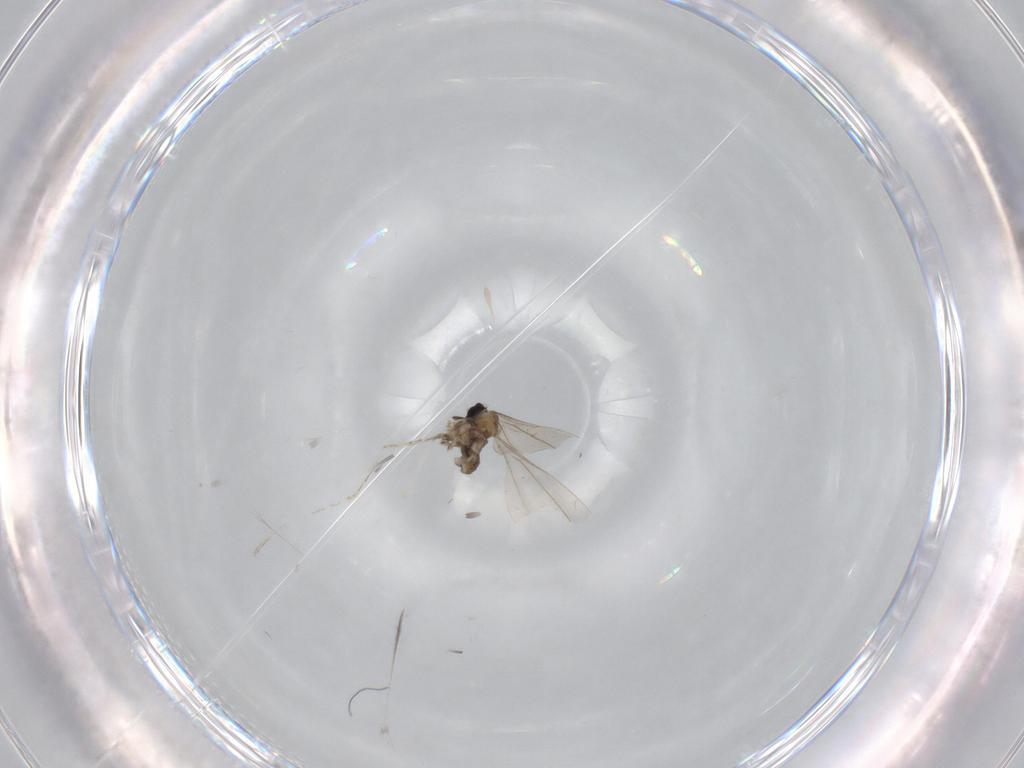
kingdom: Animalia
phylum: Arthropoda
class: Insecta
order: Diptera
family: Cecidomyiidae
